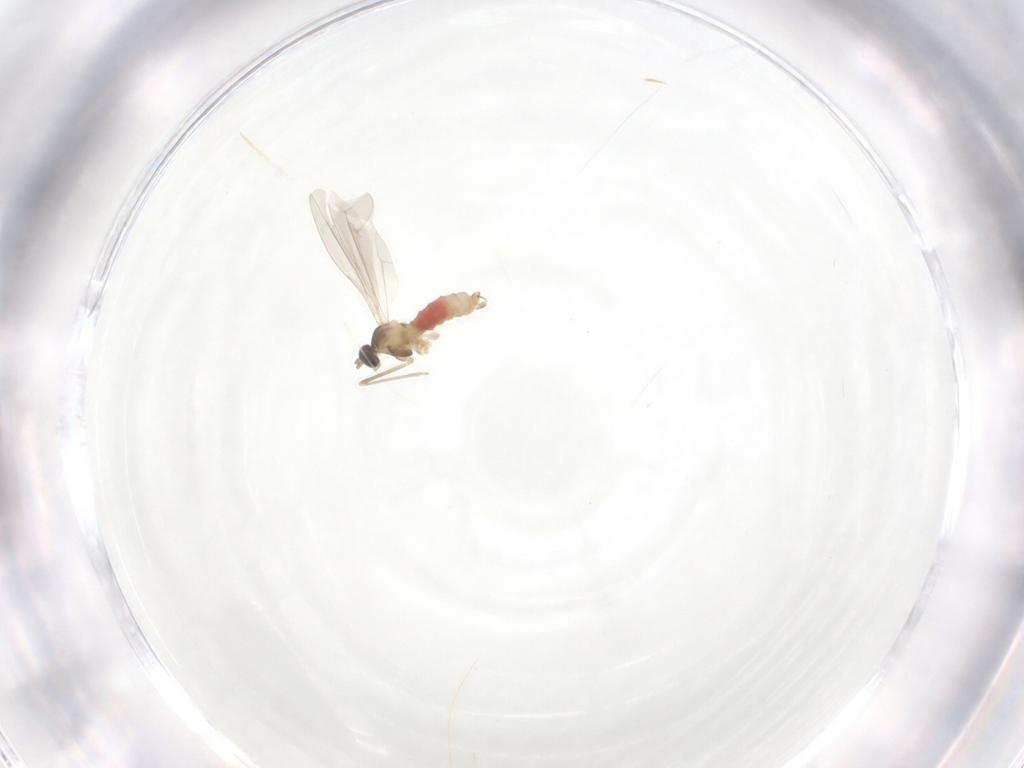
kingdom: Animalia
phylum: Arthropoda
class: Insecta
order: Diptera
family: Cecidomyiidae
